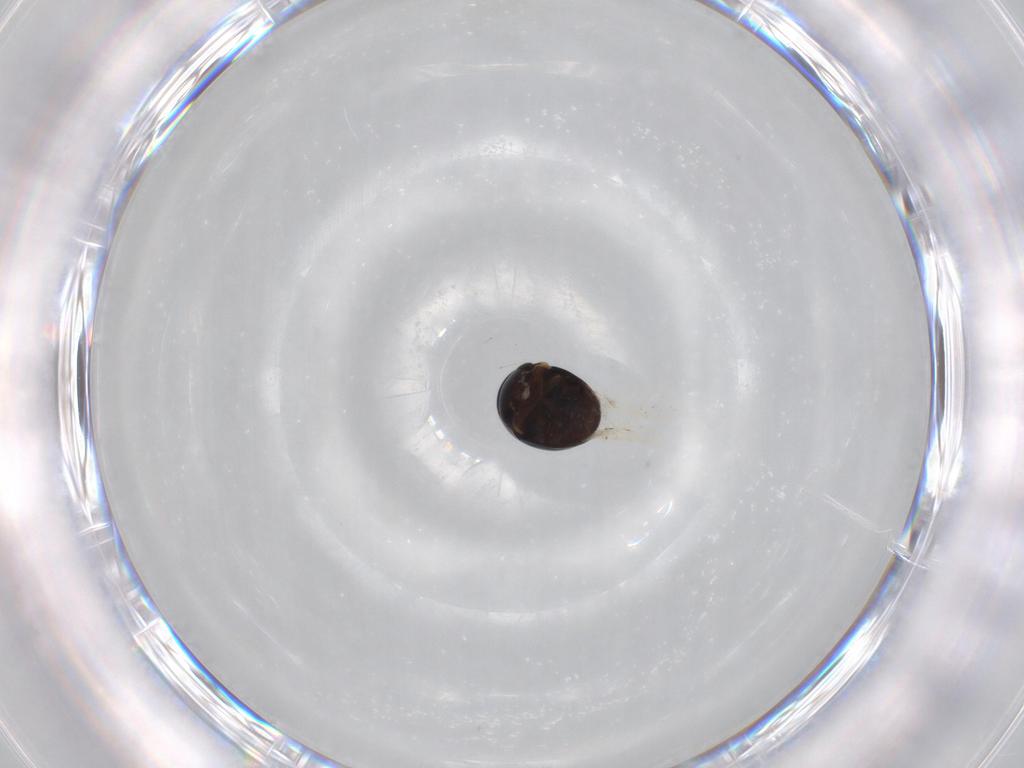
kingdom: Animalia
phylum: Arthropoda
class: Insecta
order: Coleoptera
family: Cybocephalidae
